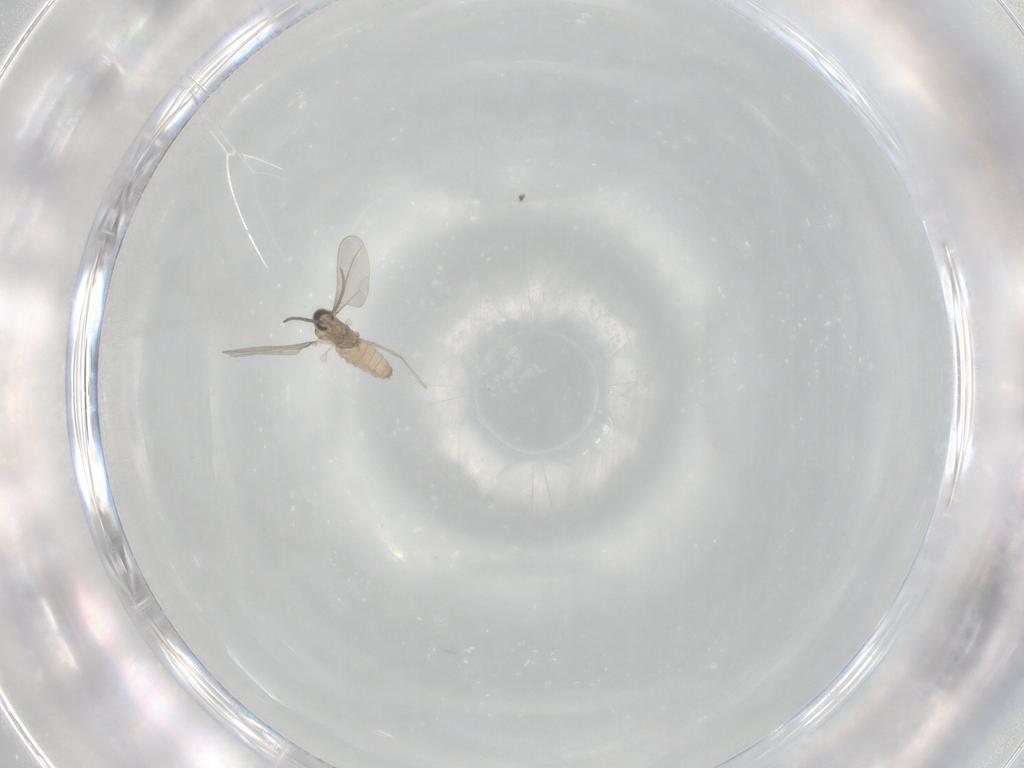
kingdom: Animalia
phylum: Arthropoda
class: Insecta
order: Diptera
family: Cecidomyiidae
